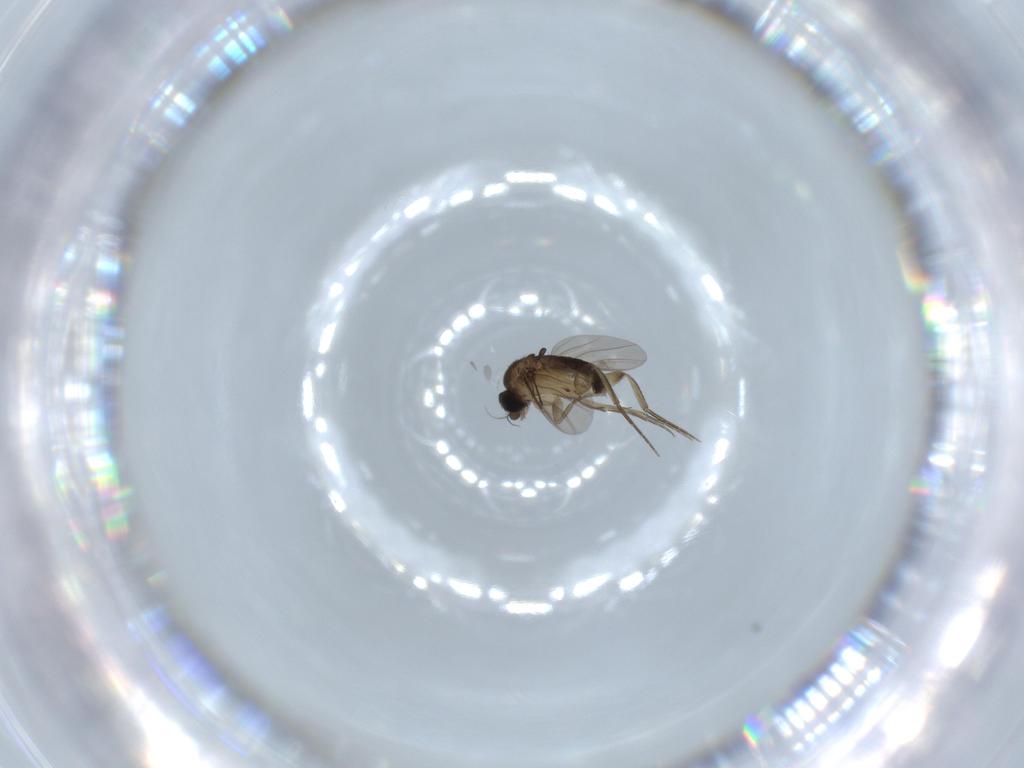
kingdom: Animalia
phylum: Arthropoda
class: Insecta
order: Diptera
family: Phoridae
